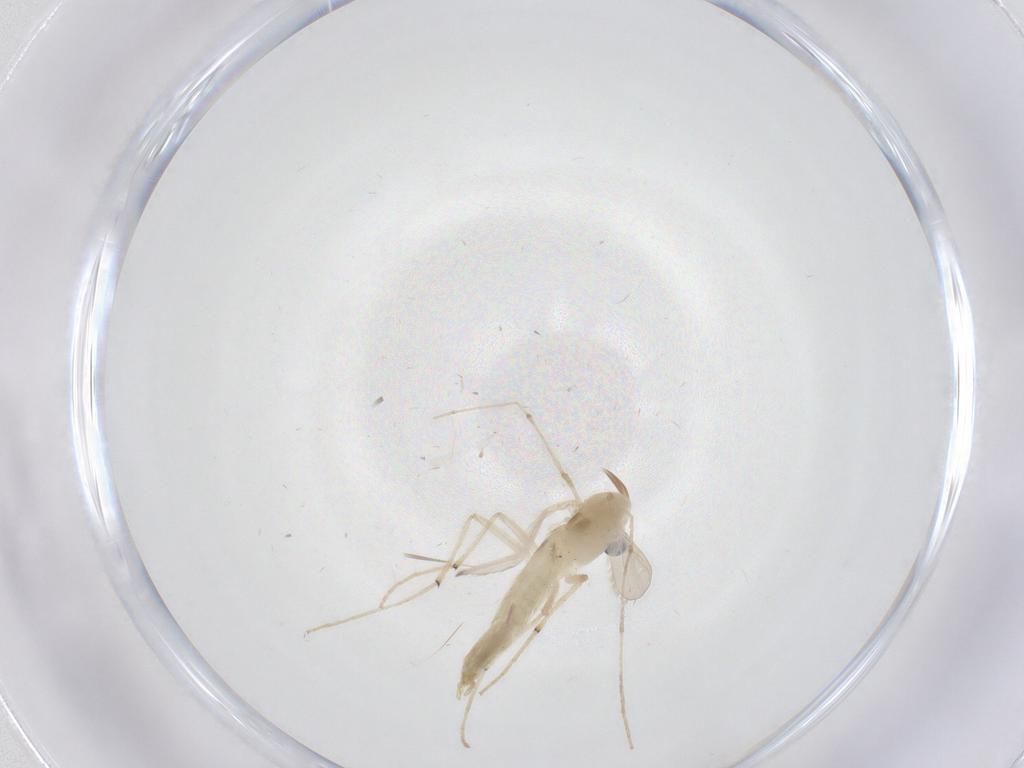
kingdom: Animalia
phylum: Arthropoda
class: Insecta
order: Diptera
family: Chironomidae
